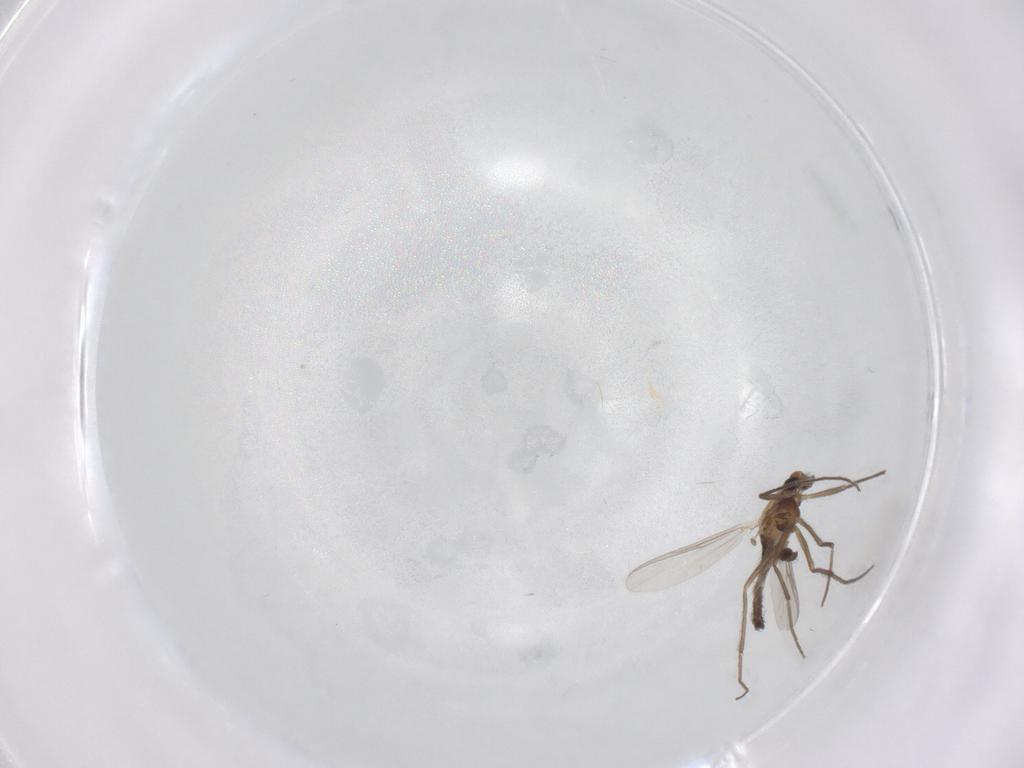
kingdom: Animalia
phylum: Arthropoda
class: Insecta
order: Diptera
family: Chironomidae
